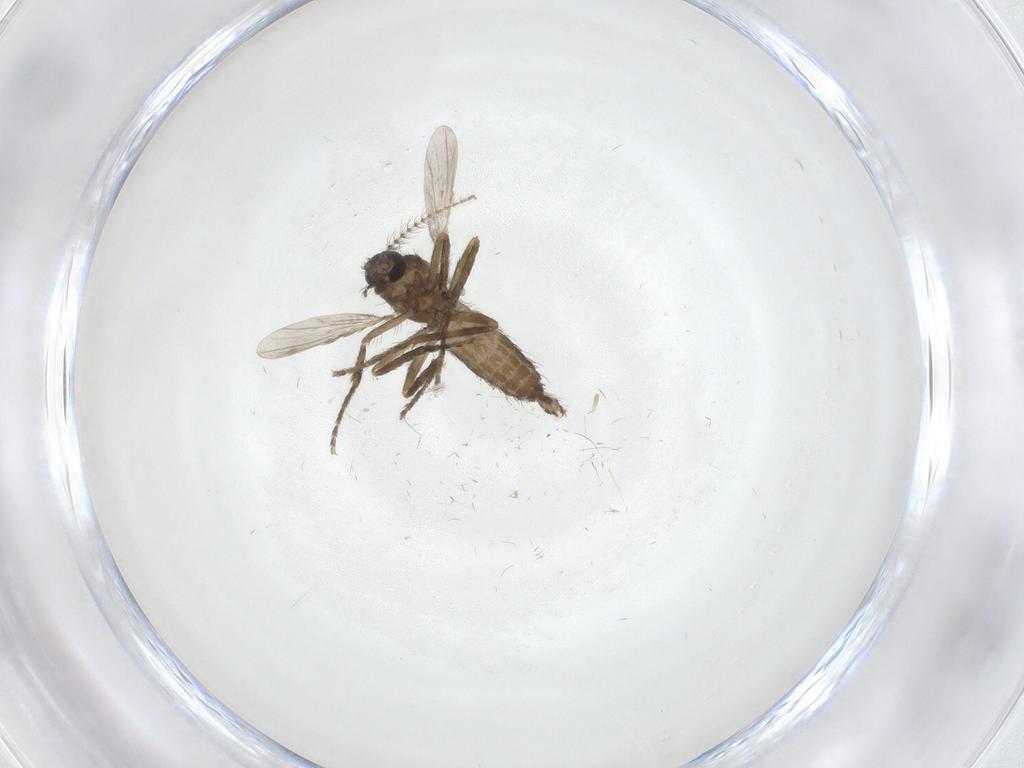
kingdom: Animalia
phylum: Arthropoda
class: Insecta
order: Diptera
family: Ceratopogonidae
